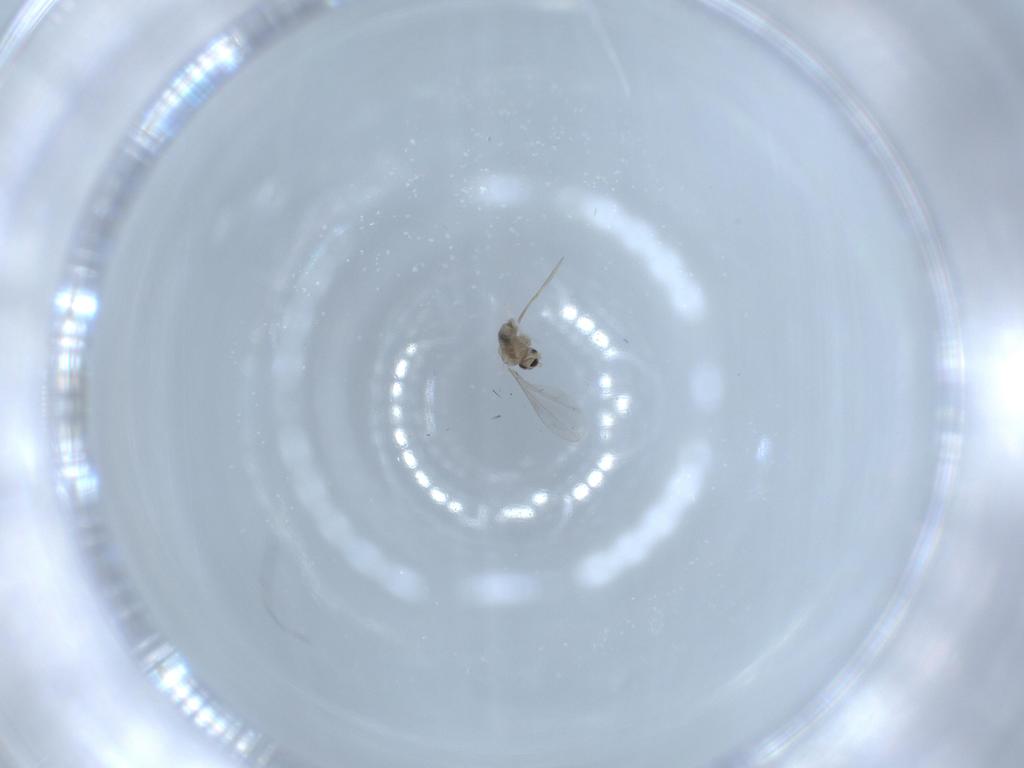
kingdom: Animalia
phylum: Arthropoda
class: Insecta
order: Diptera
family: Cecidomyiidae
